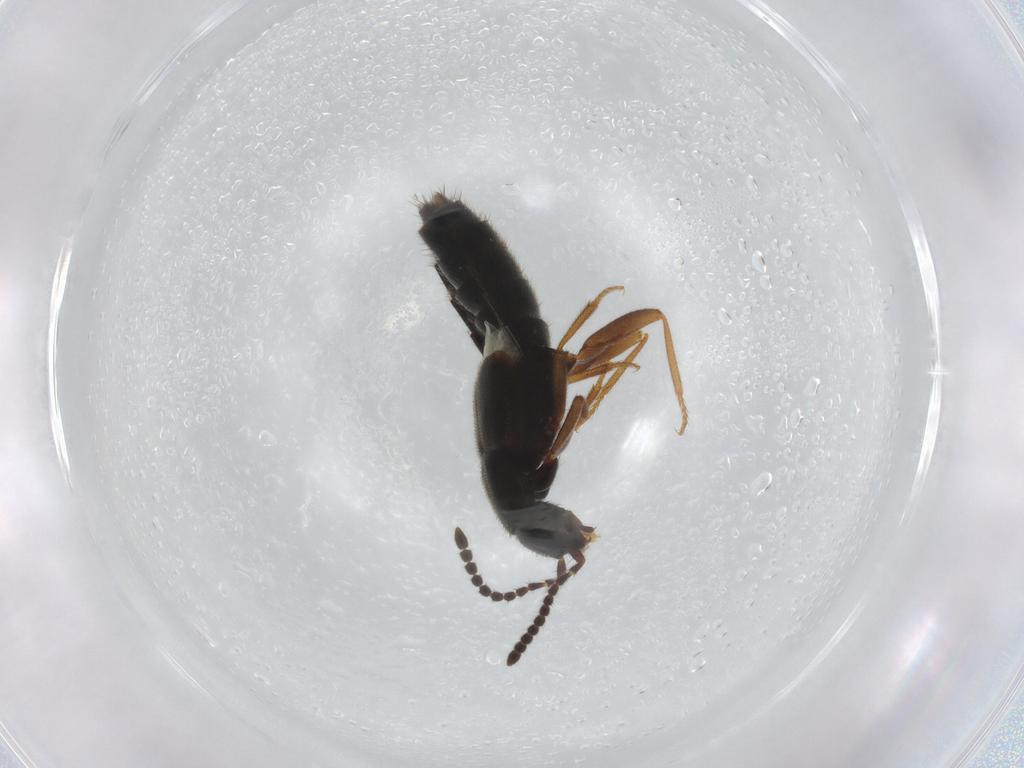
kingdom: Animalia
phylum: Arthropoda
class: Insecta
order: Coleoptera
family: Staphylinidae
